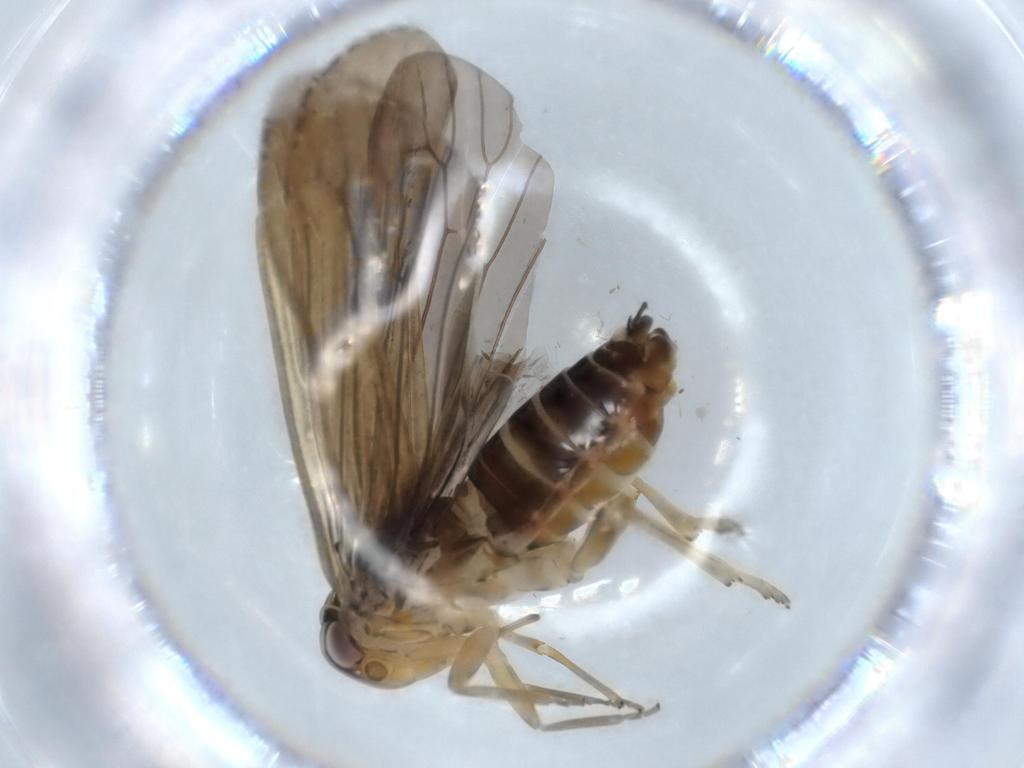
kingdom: Animalia
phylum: Arthropoda
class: Insecta
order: Hemiptera
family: Achilidae
